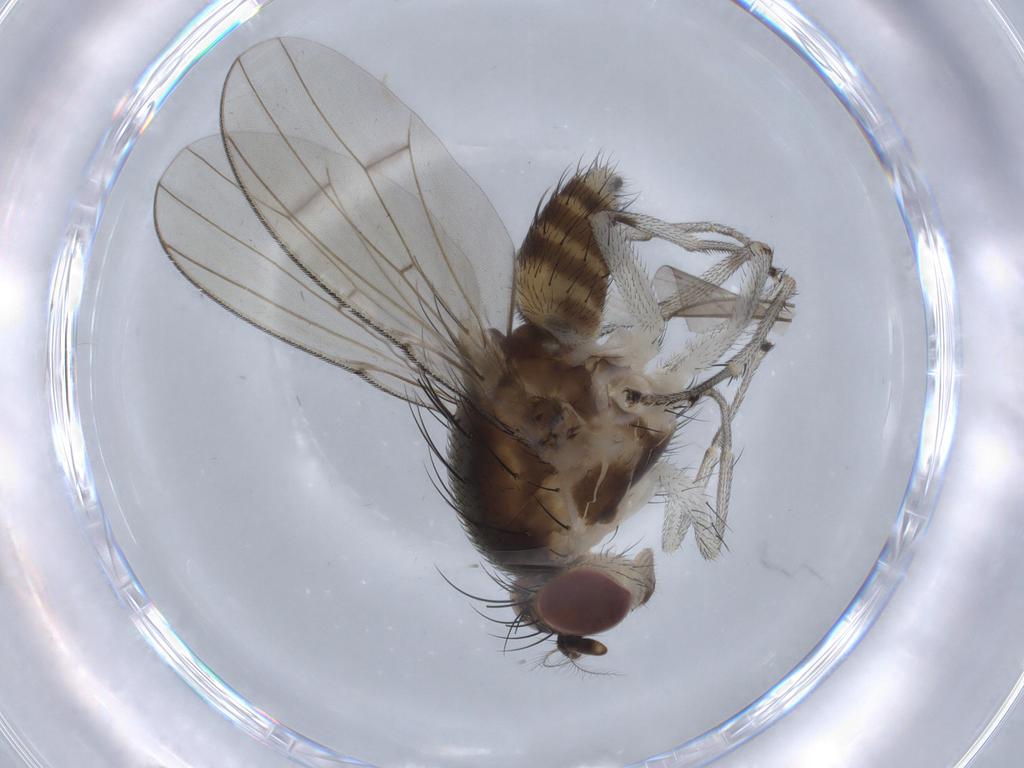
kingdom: Animalia
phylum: Arthropoda
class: Insecta
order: Diptera
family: Lauxaniidae
